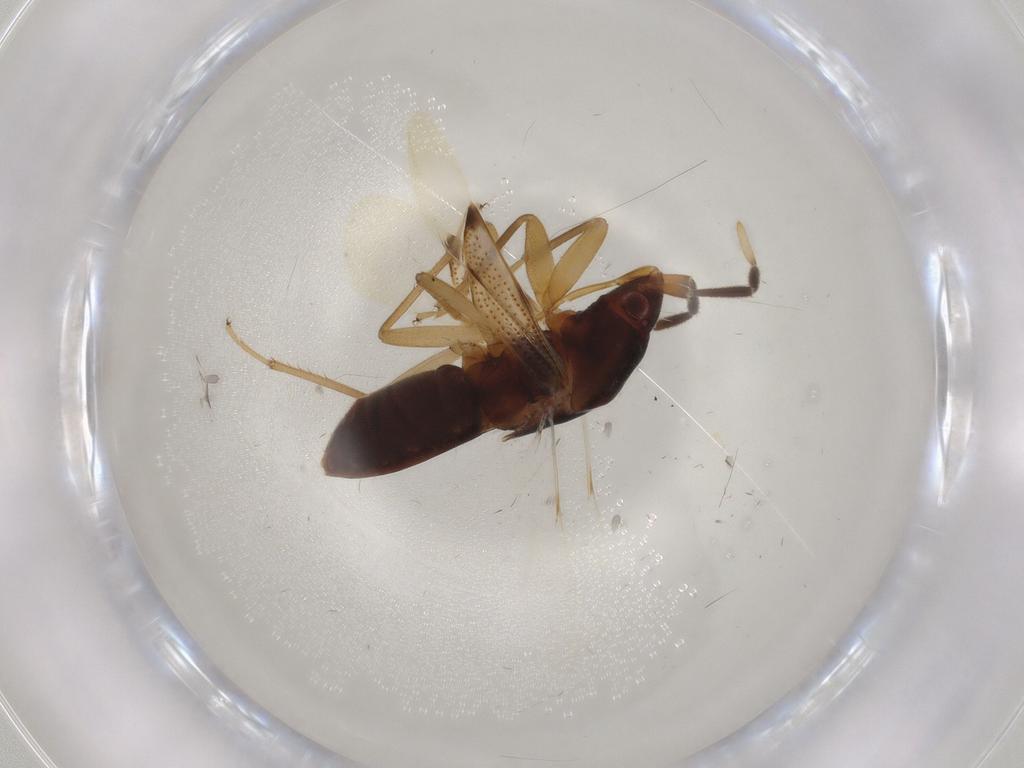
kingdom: Animalia
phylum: Arthropoda
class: Insecta
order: Hemiptera
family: Rhyparochromidae
